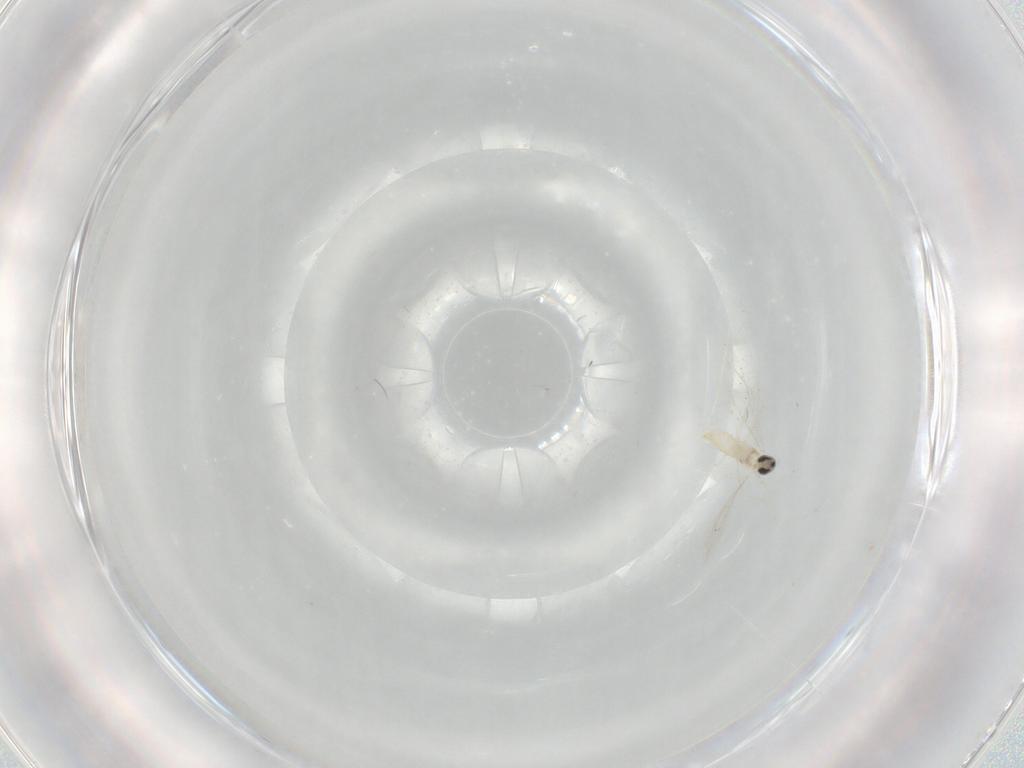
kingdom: Animalia
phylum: Arthropoda
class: Insecta
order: Diptera
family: Cecidomyiidae
